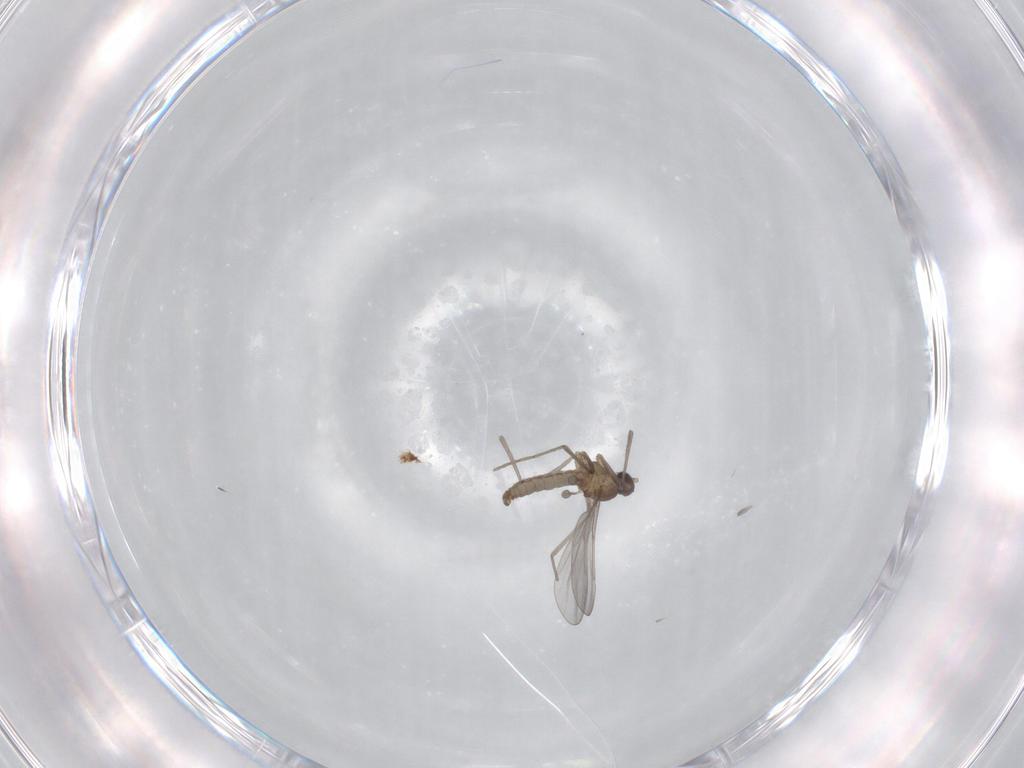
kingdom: Animalia
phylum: Arthropoda
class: Insecta
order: Diptera
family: Cecidomyiidae
